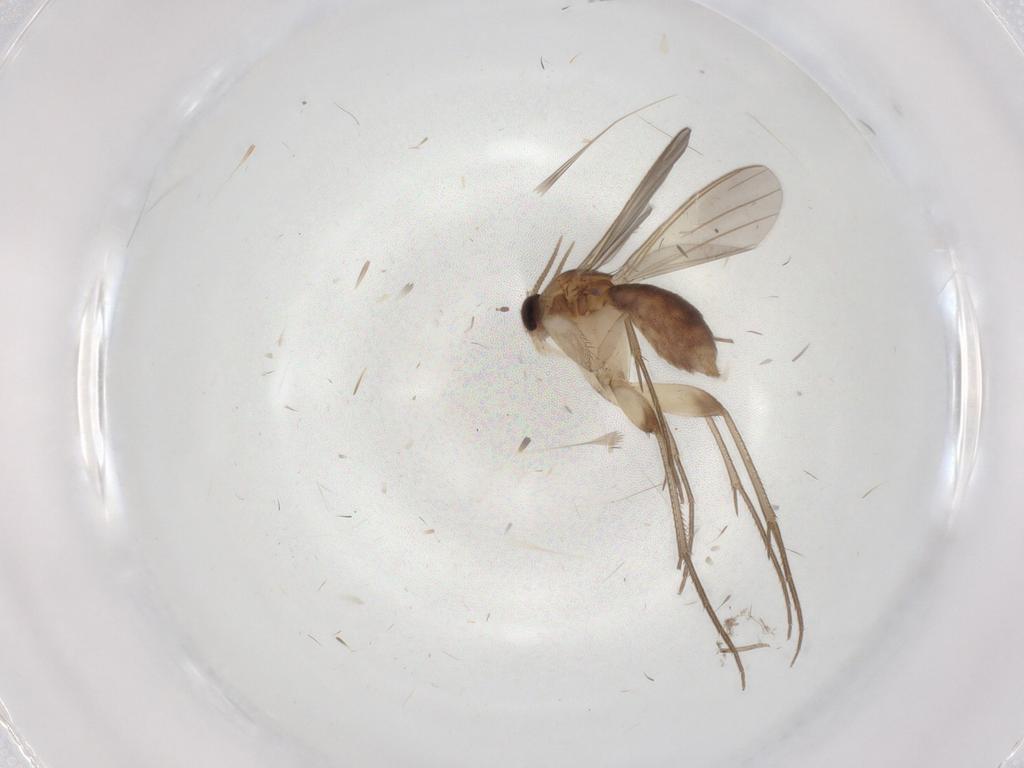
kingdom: Animalia
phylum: Arthropoda
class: Insecta
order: Diptera
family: Mycetophilidae
